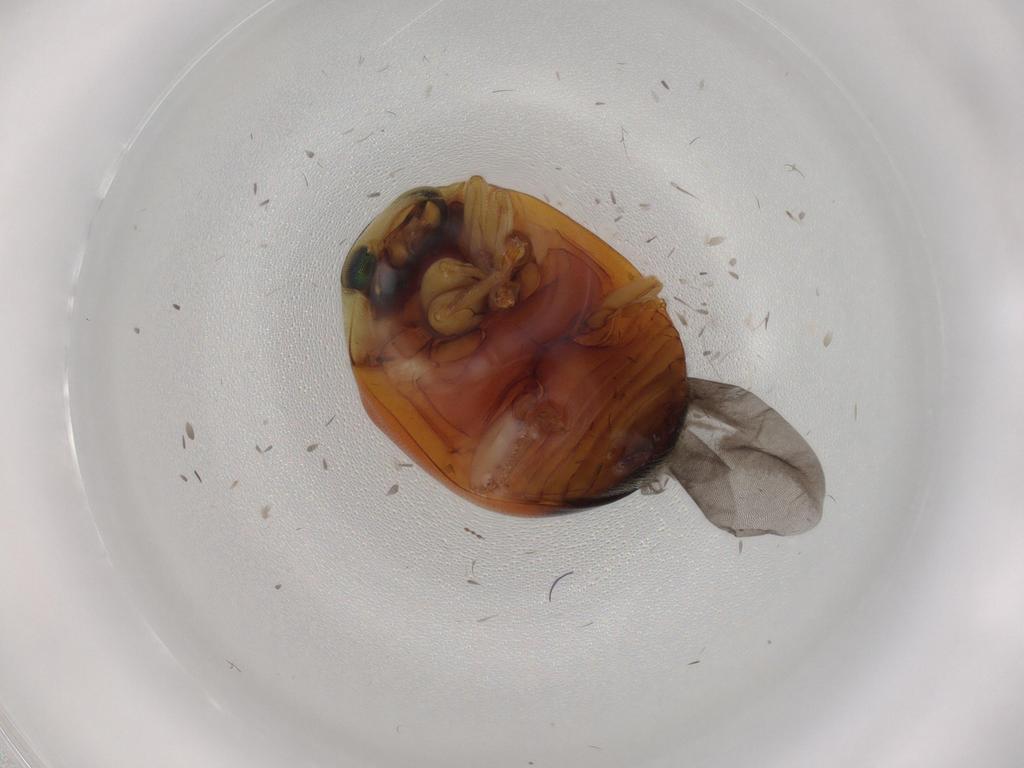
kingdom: Animalia
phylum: Arthropoda
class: Insecta
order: Coleoptera
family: Coccinellidae
